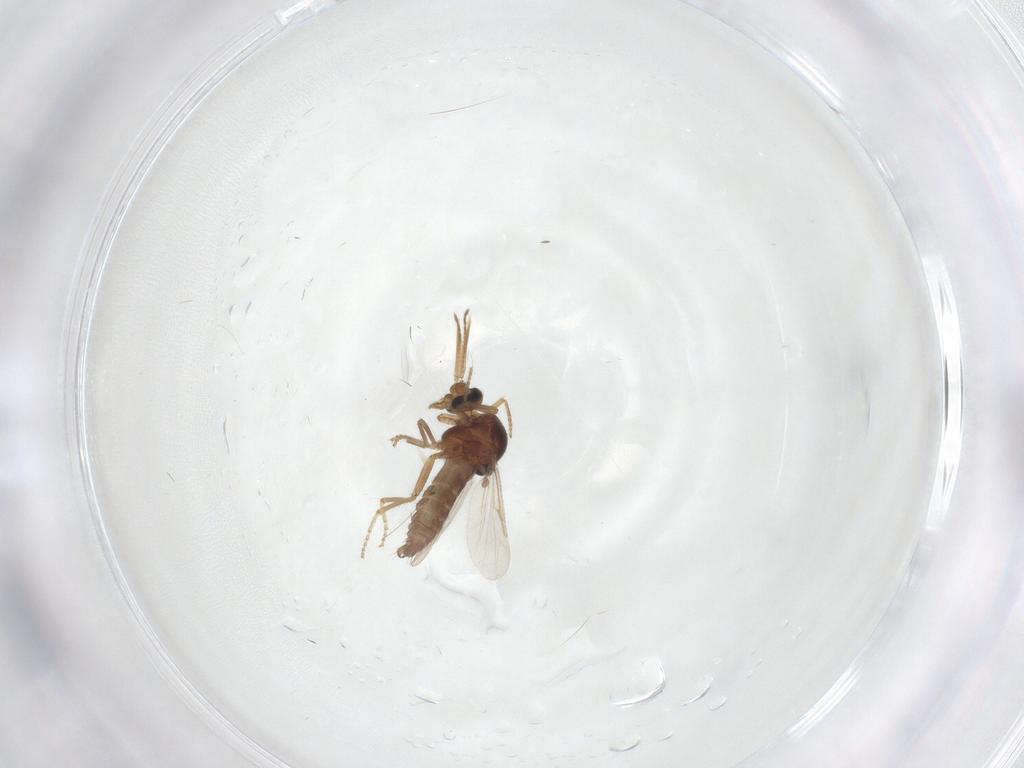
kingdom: Animalia
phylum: Arthropoda
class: Insecta
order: Diptera
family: Ceratopogonidae
